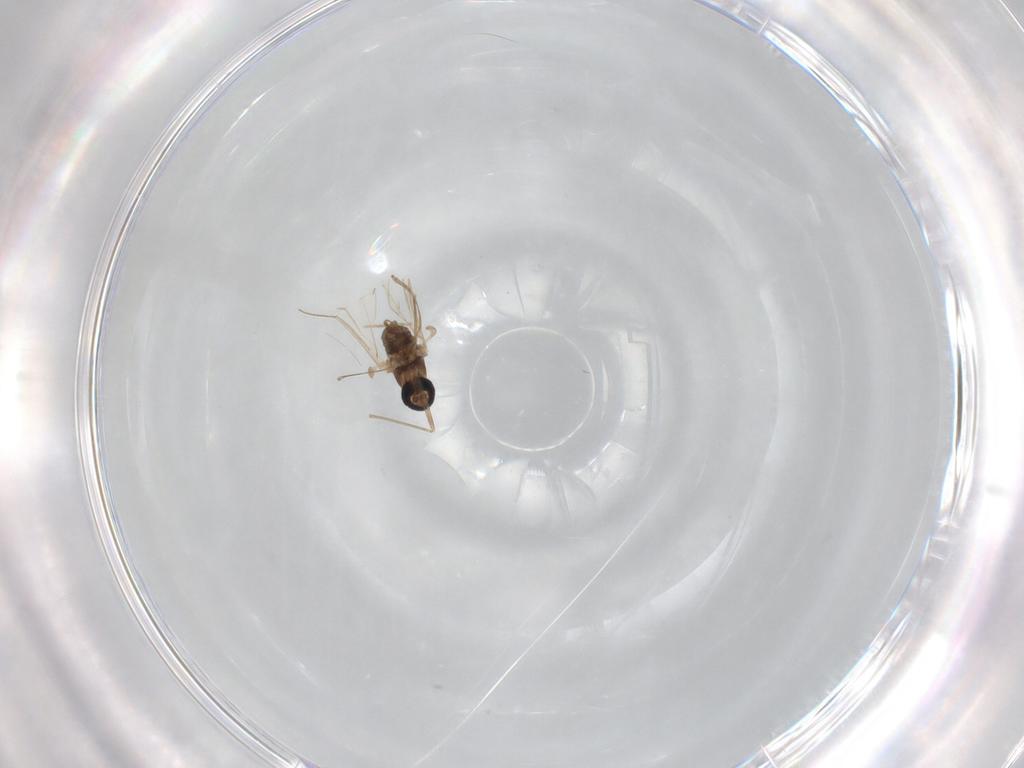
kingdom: Animalia
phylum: Arthropoda
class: Insecta
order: Diptera
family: Cecidomyiidae
